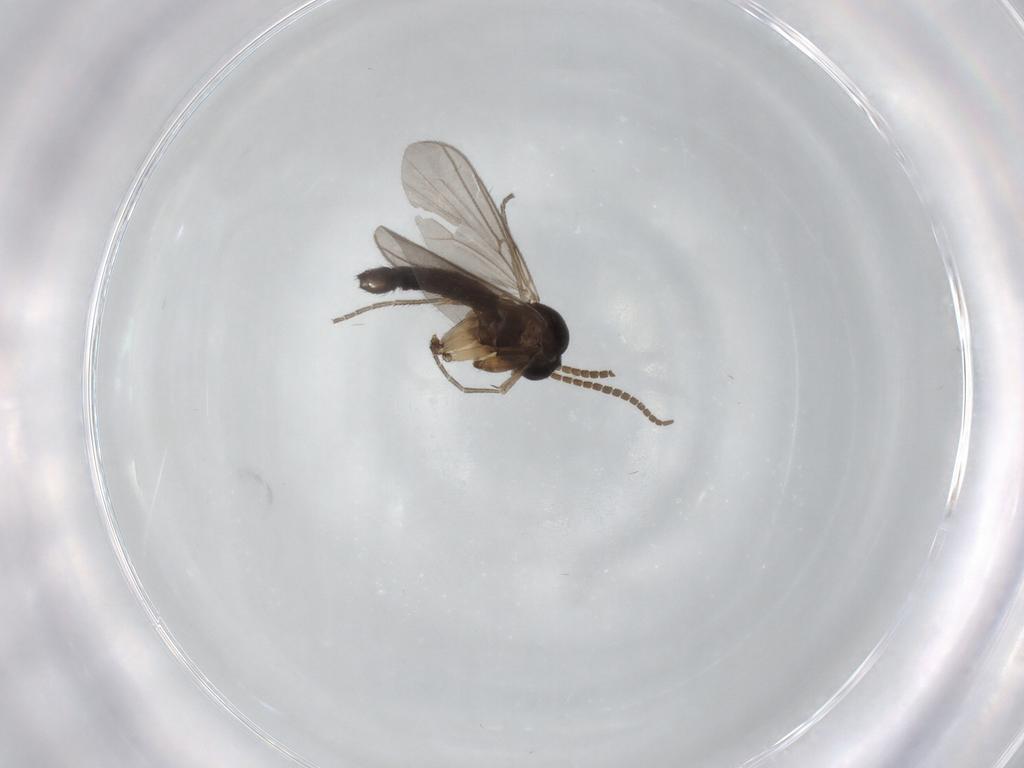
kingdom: Animalia
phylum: Arthropoda
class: Insecta
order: Diptera
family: Mycetophilidae
